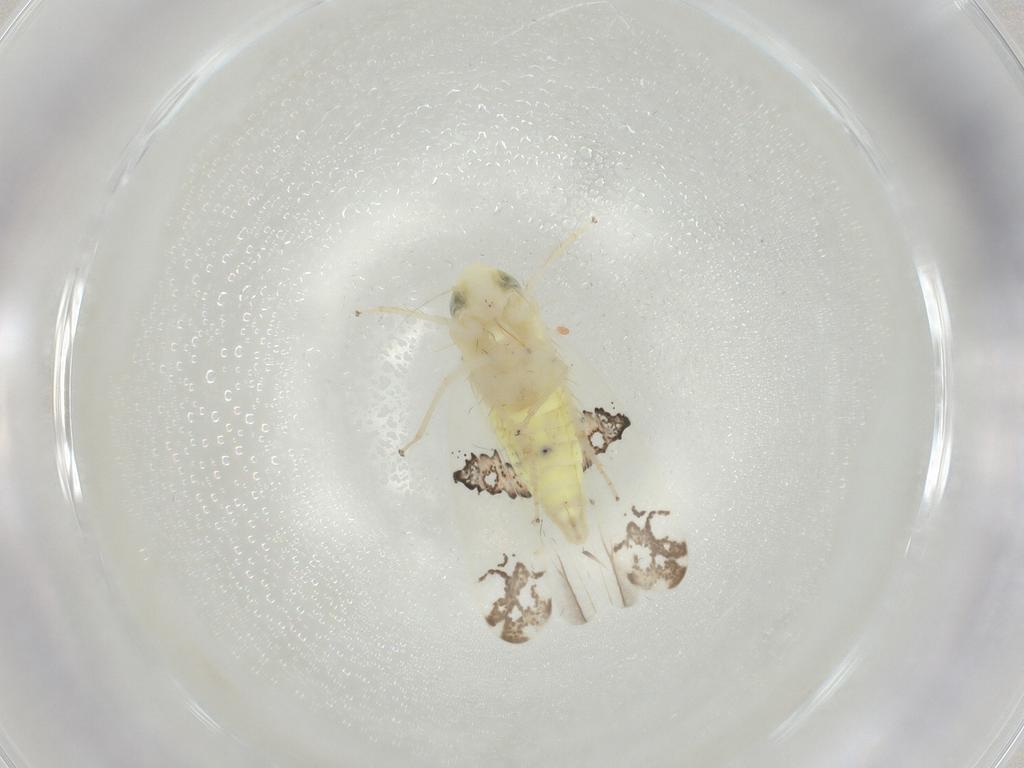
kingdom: Animalia
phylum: Arthropoda
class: Insecta
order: Hemiptera
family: Cicadellidae
